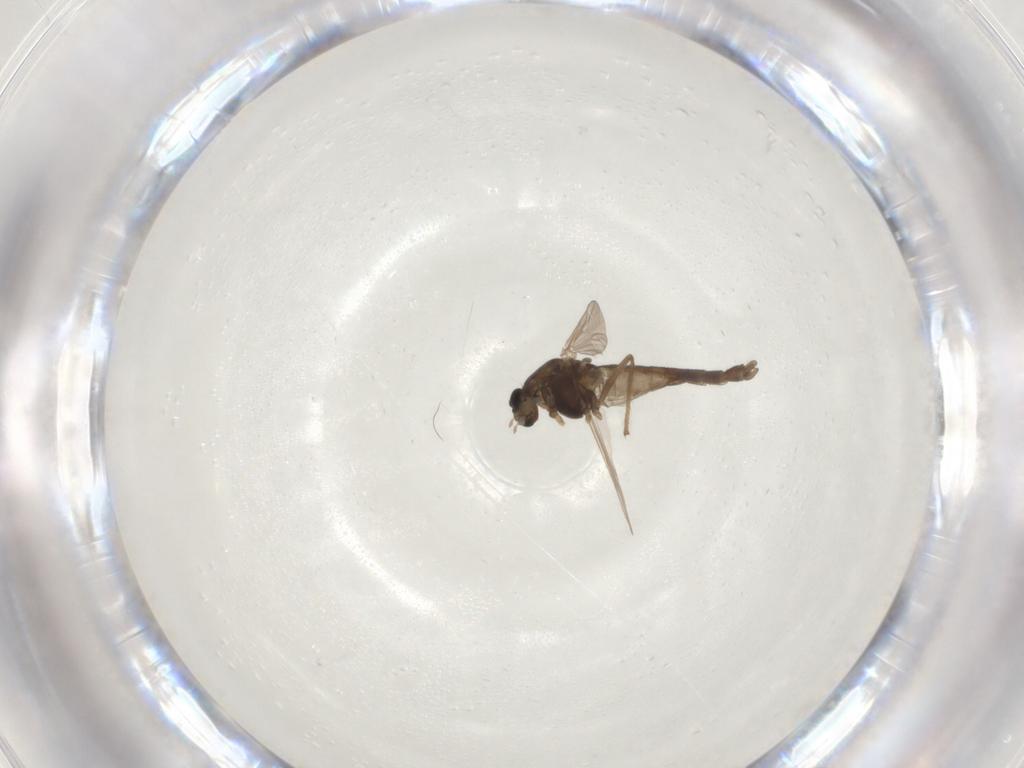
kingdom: Animalia
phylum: Arthropoda
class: Insecta
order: Diptera
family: Chironomidae
